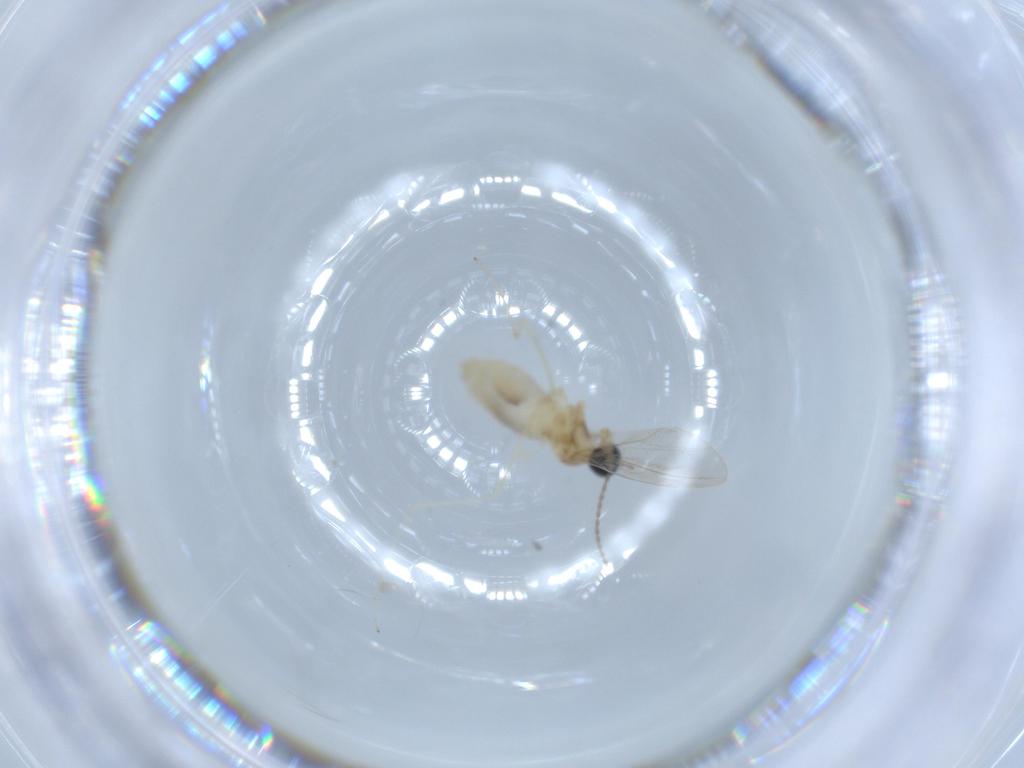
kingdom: Animalia
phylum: Arthropoda
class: Insecta
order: Diptera
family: Cecidomyiidae
